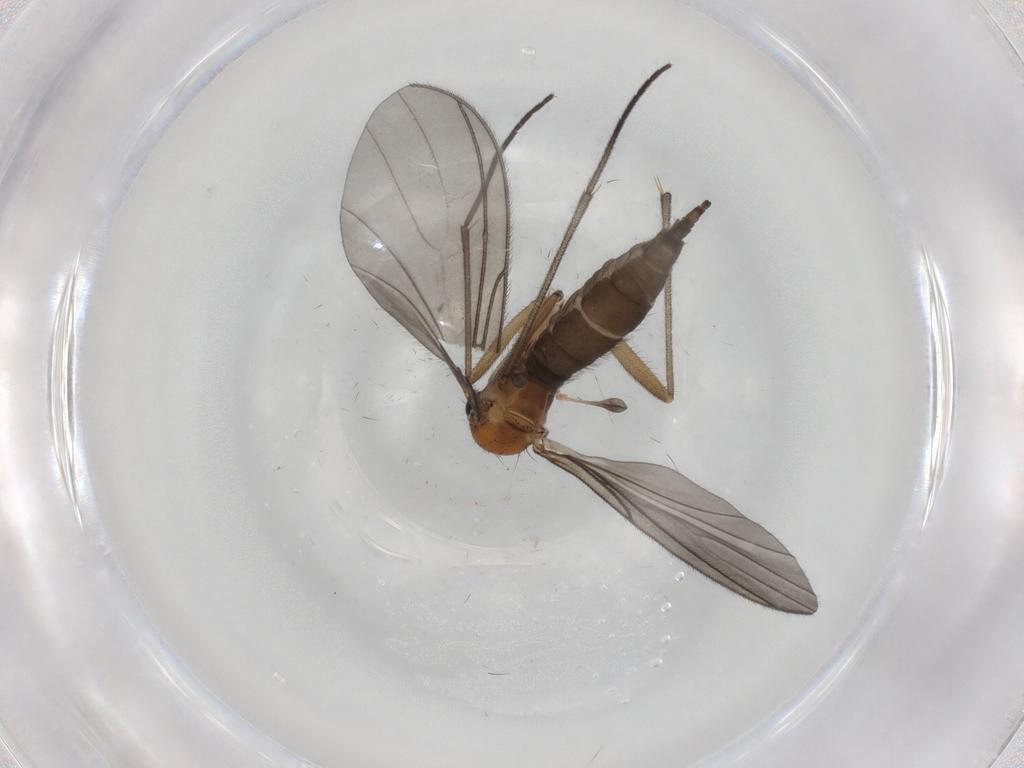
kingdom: Animalia
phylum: Arthropoda
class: Insecta
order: Diptera
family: Sciaridae
